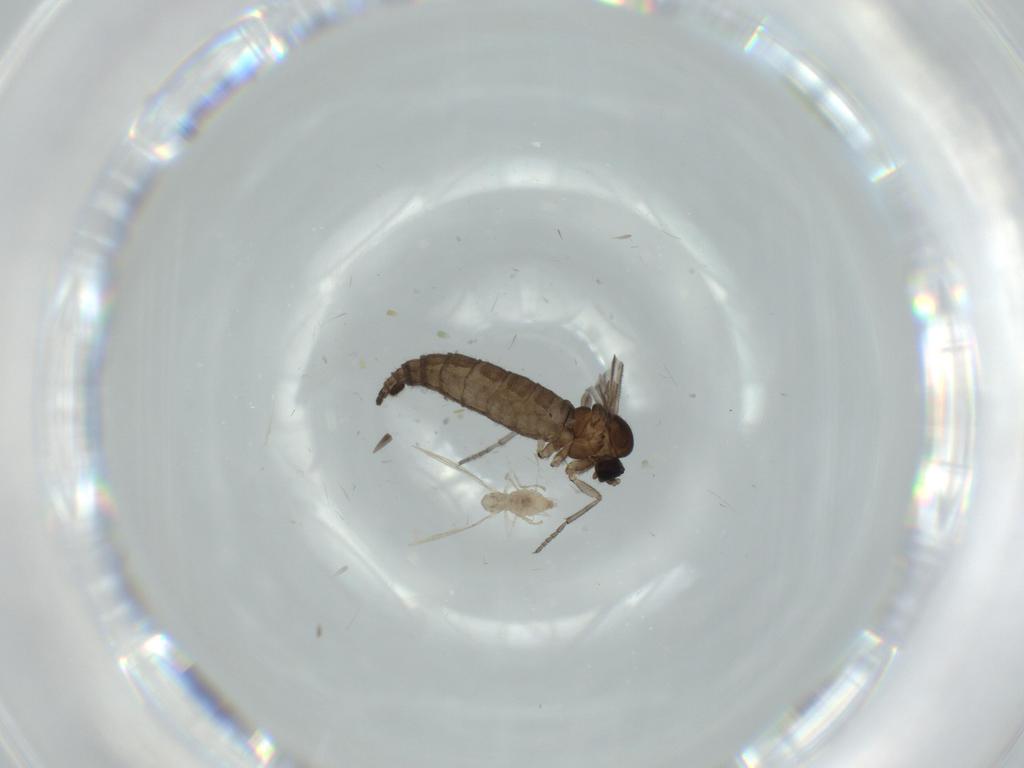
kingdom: Animalia
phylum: Arthropoda
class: Insecta
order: Diptera
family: Cecidomyiidae
